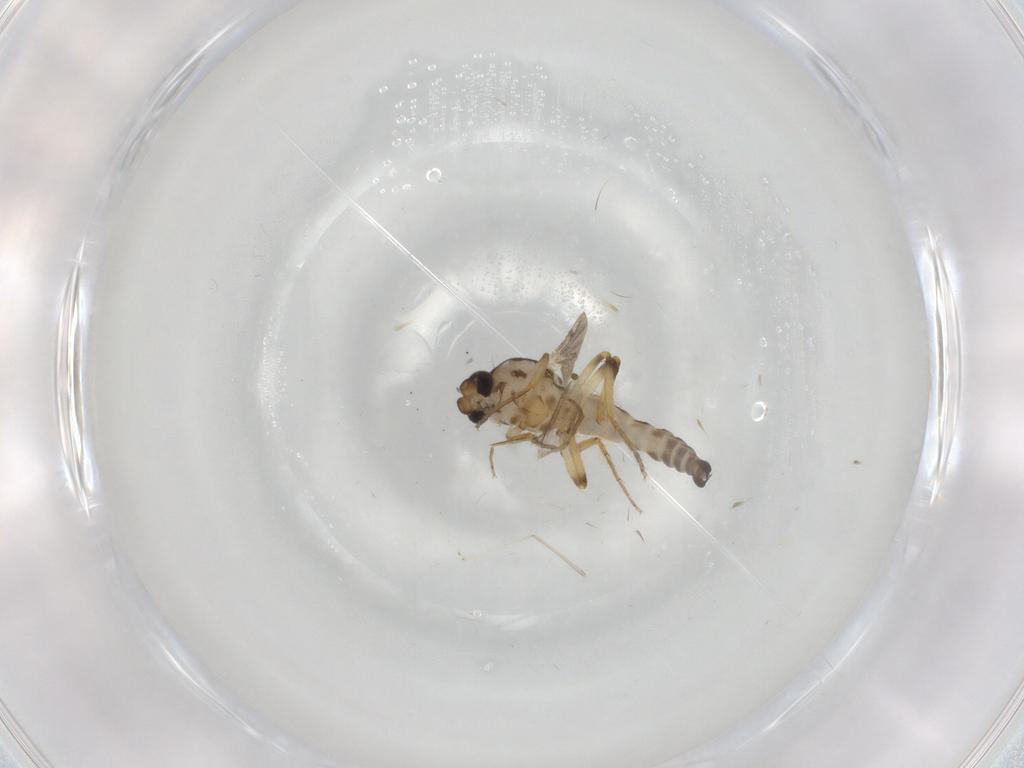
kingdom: Animalia
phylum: Arthropoda
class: Insecta
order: Diptera
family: Ceratopogonidae
